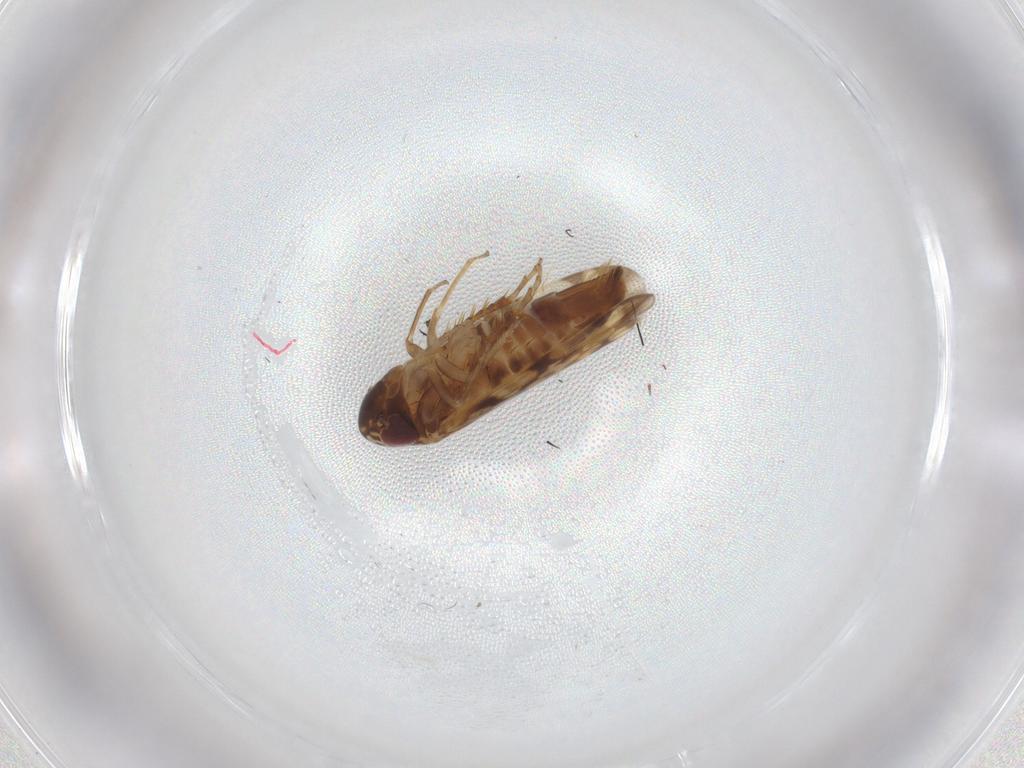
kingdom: Animalia
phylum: Arthropoda
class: Insecta
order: Hemiptera
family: Cicadellidae
